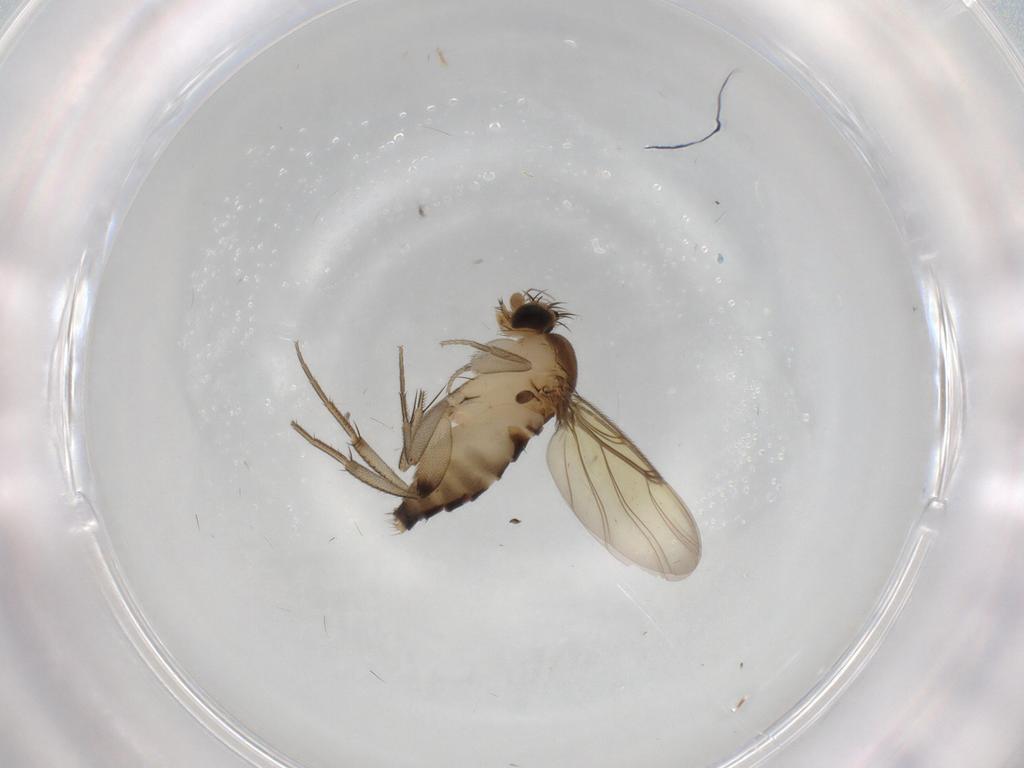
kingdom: Animalia
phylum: Arthropoda
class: Insecta
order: Diptera
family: Phoridae
